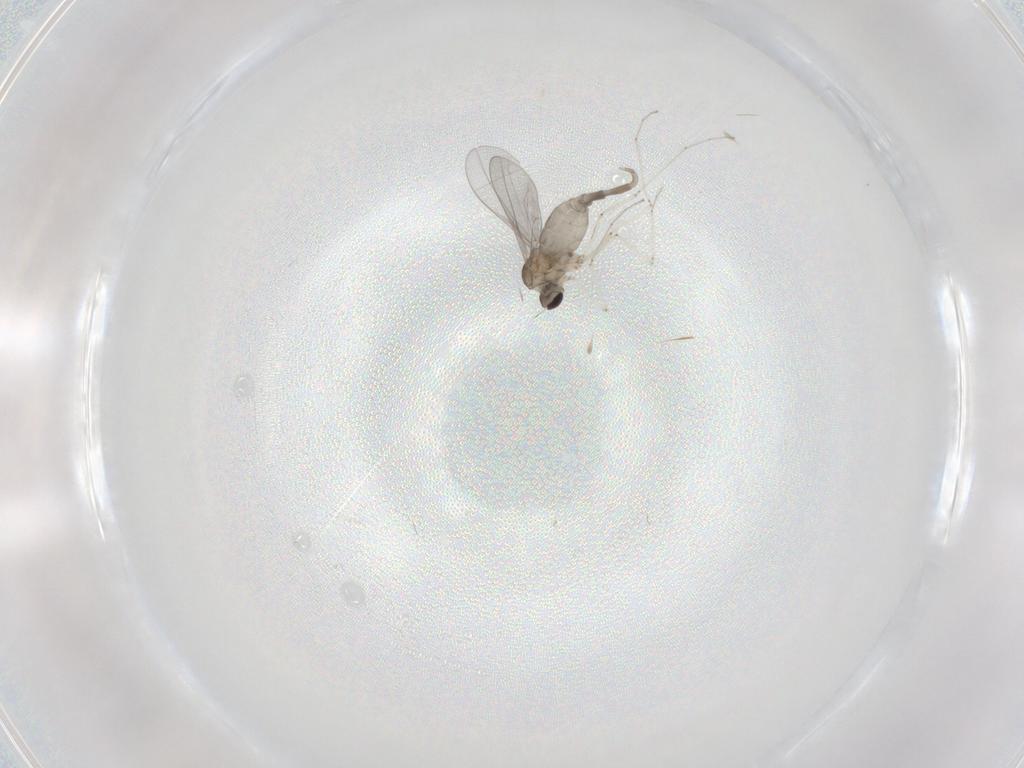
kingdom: Animalia
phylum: Arthropoda
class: Insecta
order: Diptera
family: Cecidomyiidae
